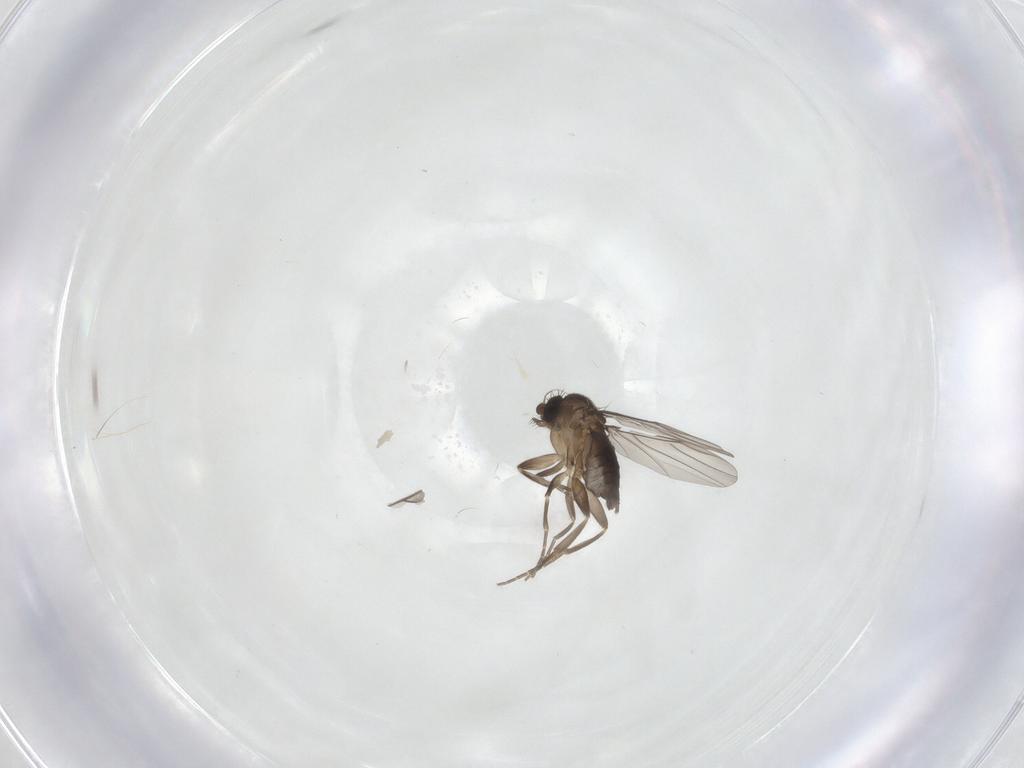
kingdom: Animalia
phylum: Arthropoda
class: Insecta
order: Diptera
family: Phoridae
